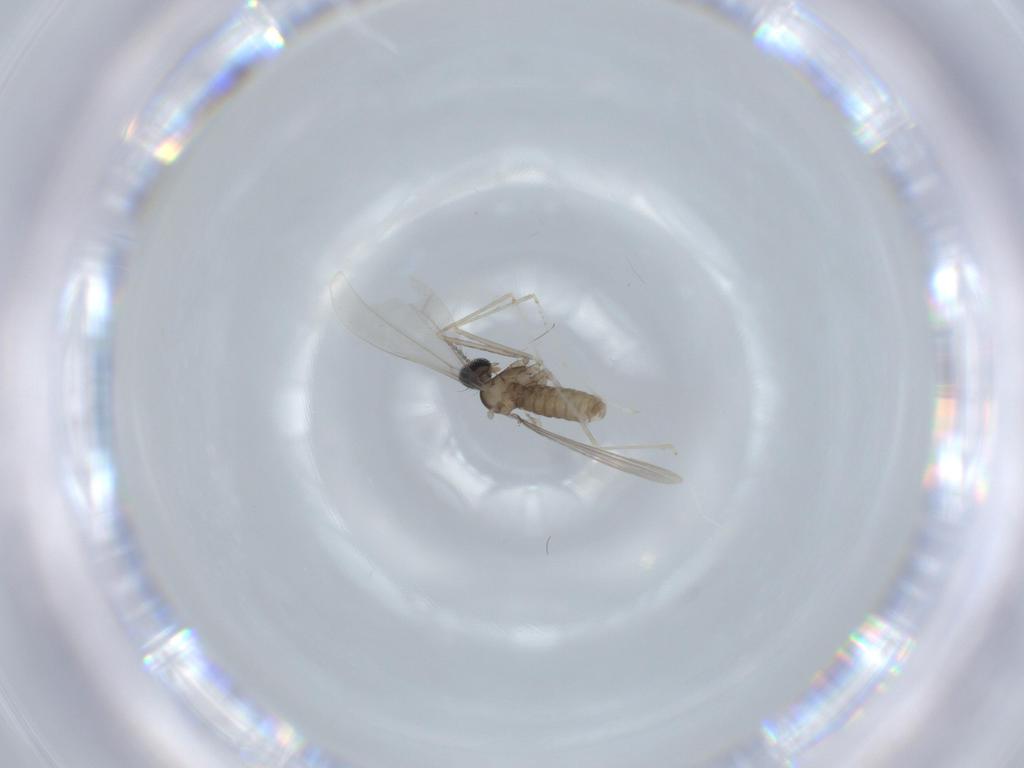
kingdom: Animalia
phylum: Arthropoda
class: Insecta
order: Diptera
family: Cecidomyiidae
